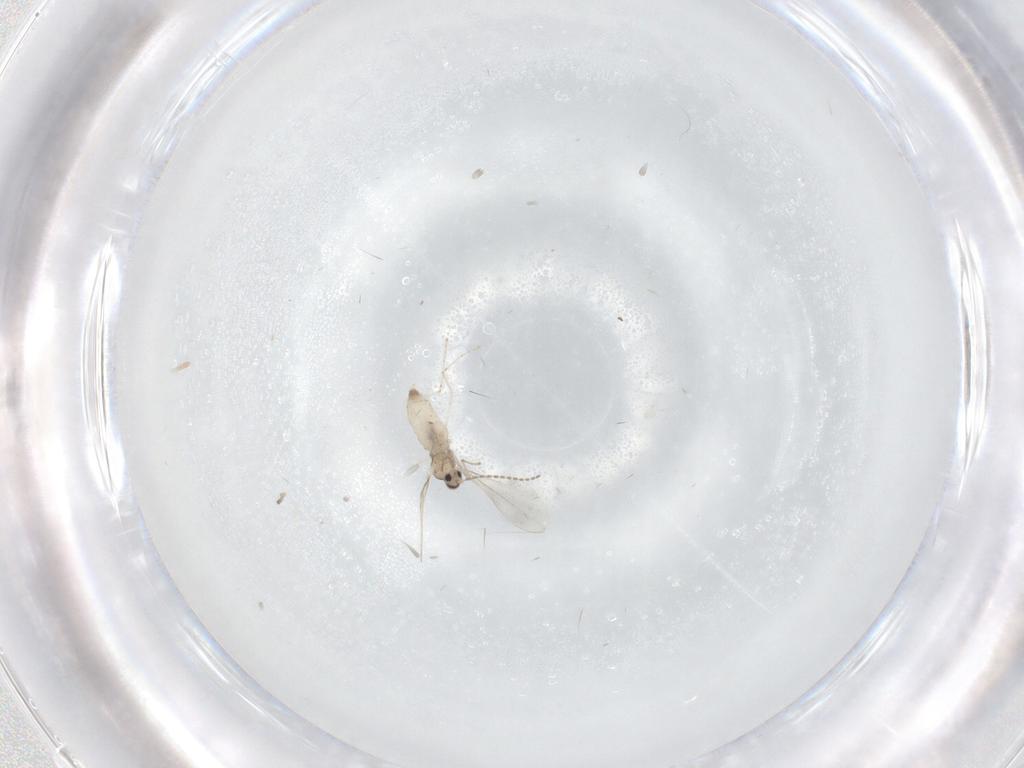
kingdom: Animalia
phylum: Arthropoda
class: Insecta
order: Diptera
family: Cecidomyiidae
